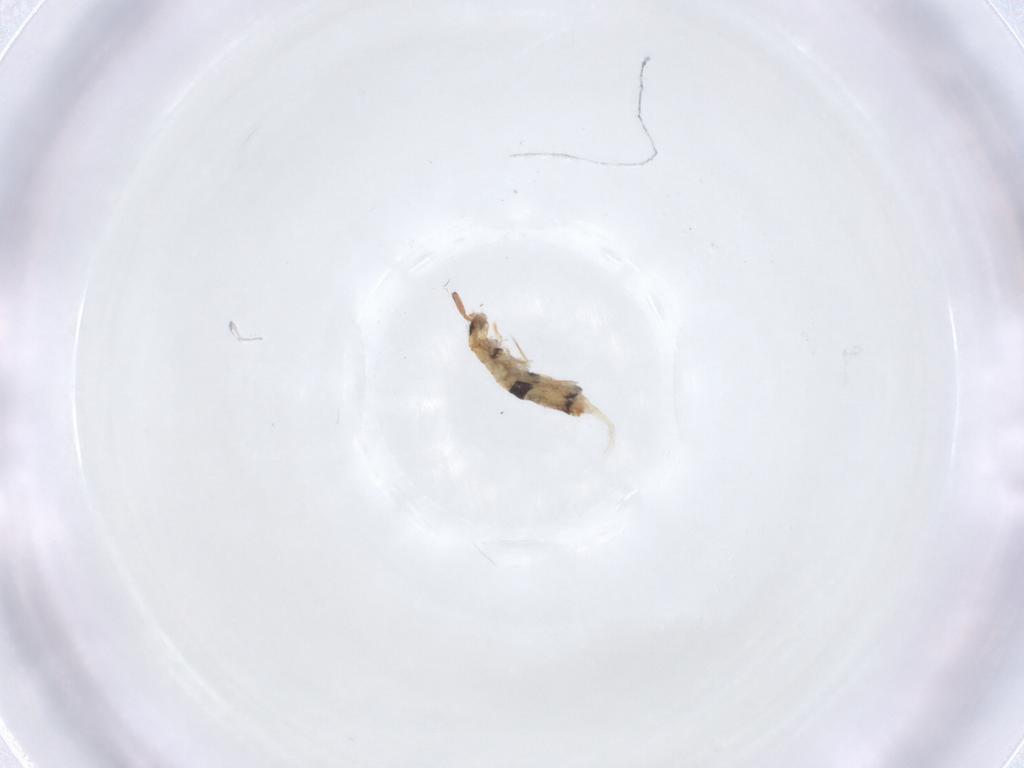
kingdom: Animalia
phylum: Arthropoda
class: Collembola
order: Entomobryomorpha
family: Entomobryidae
